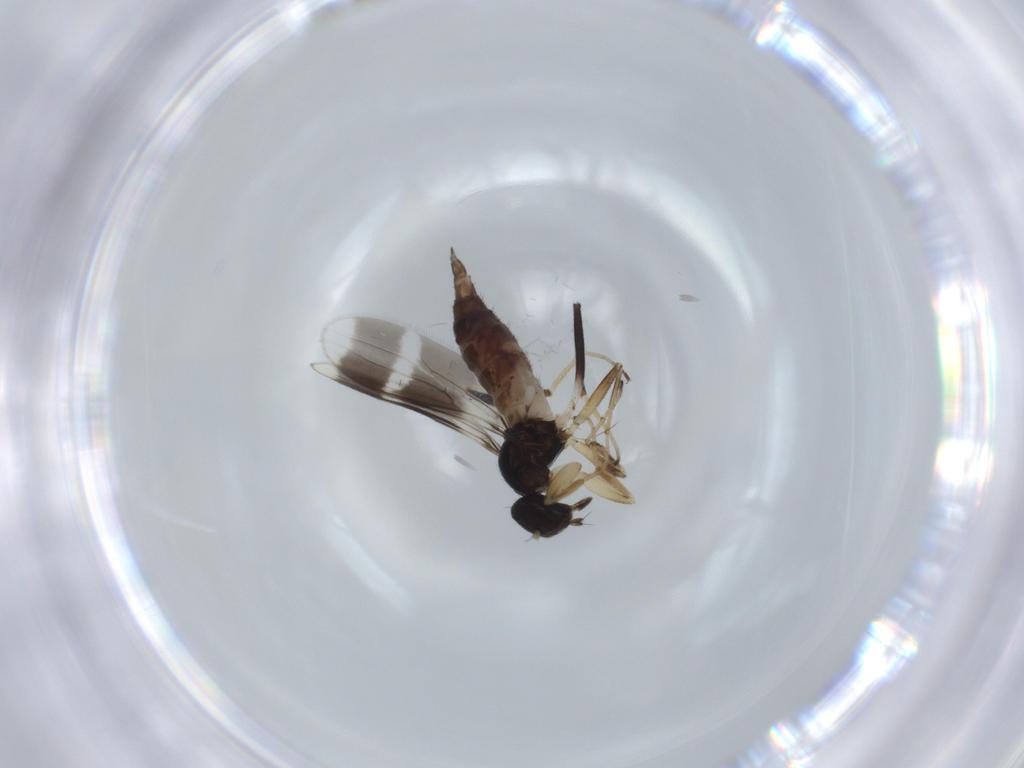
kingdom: Animalia
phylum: Arthropoda
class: Insecta
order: Diptera
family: Hybotidae
